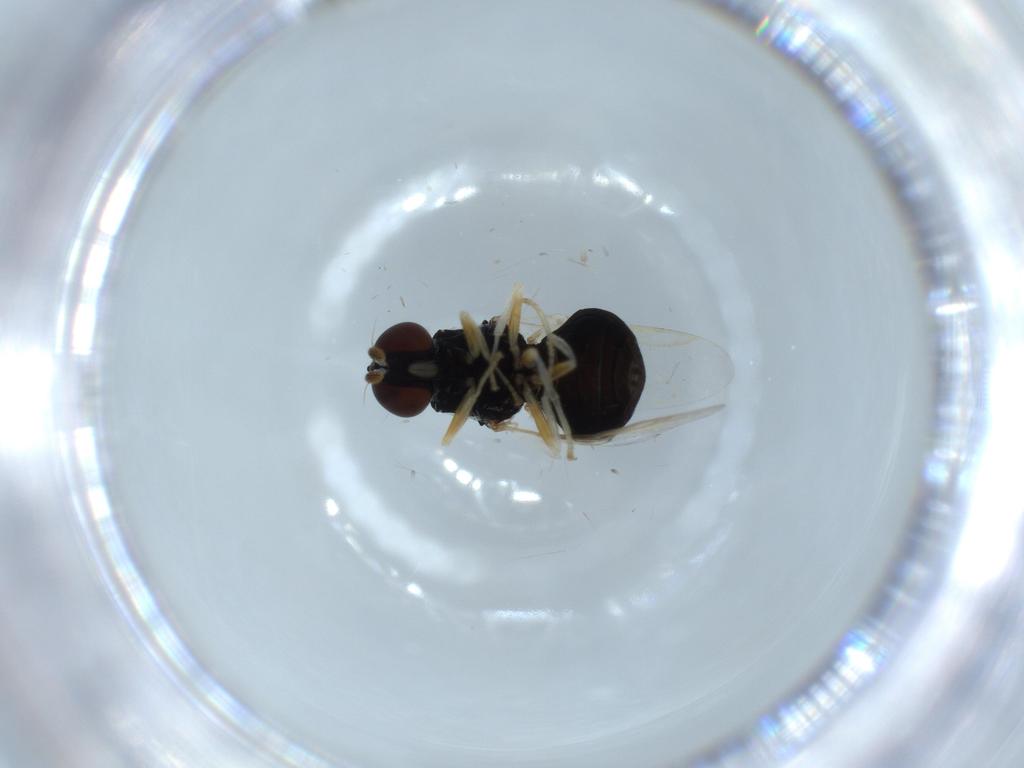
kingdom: Animalia
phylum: Arthropoda
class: Insecta
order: Diptera
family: Stratiomyidae
